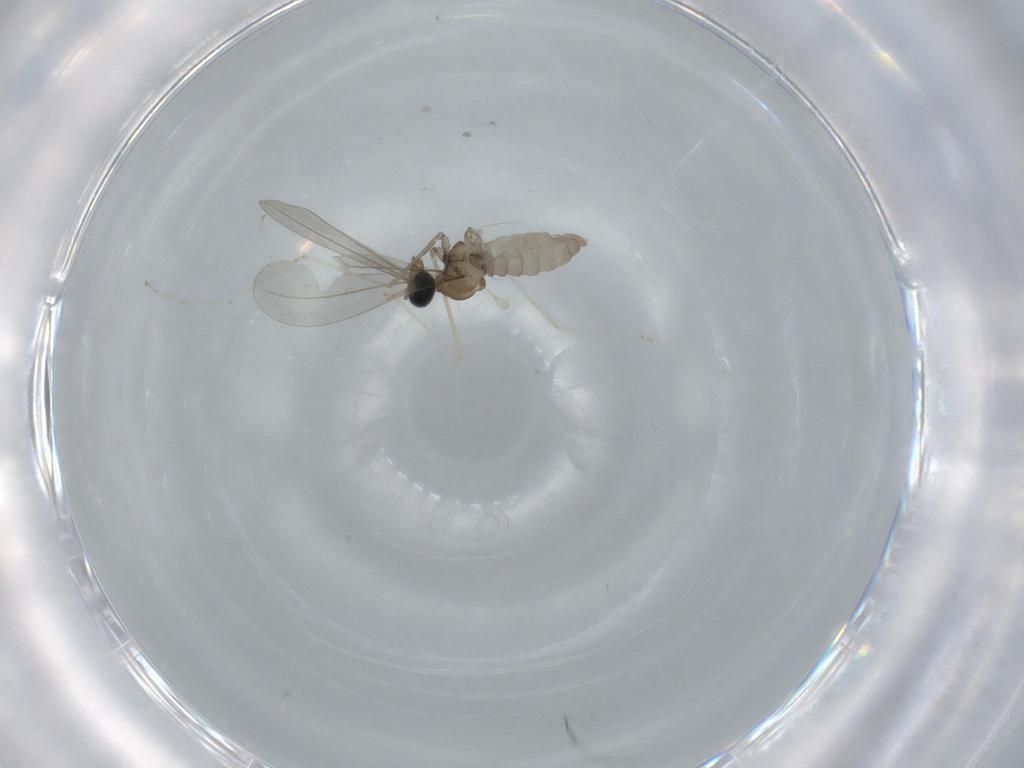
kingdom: Animalia
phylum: Arthropoda
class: Insecta
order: Diptera
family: Cecidomyiidae
